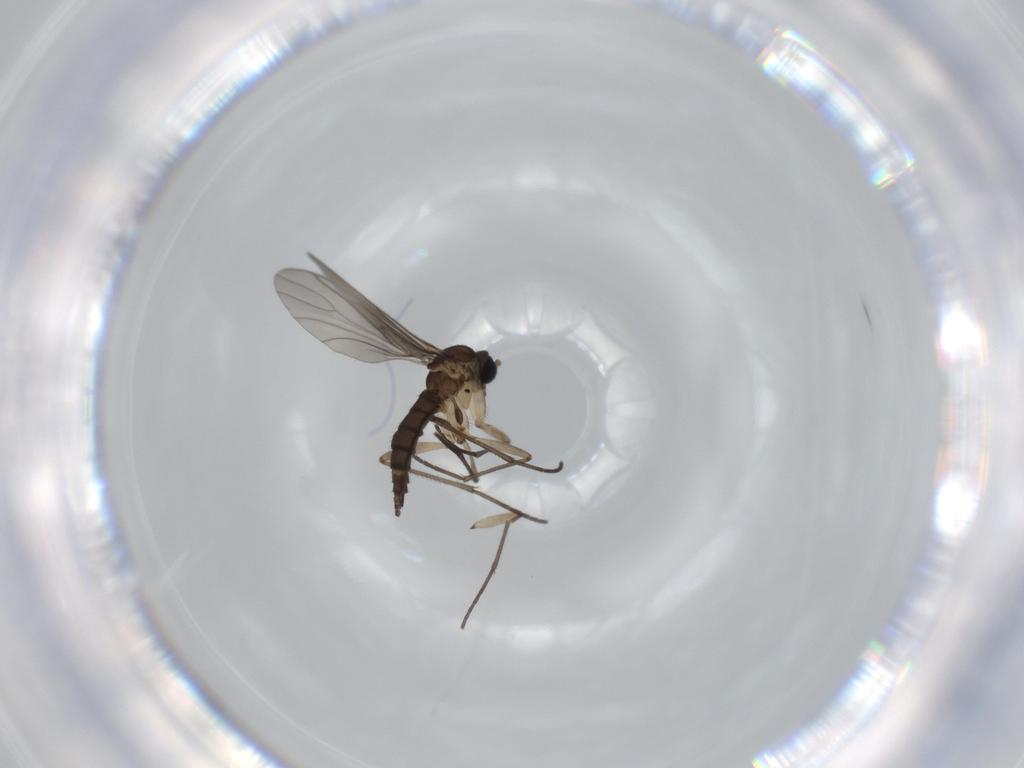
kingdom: Animalia
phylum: Arthropoda
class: Insecta
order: Diptera
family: Sciaridae
